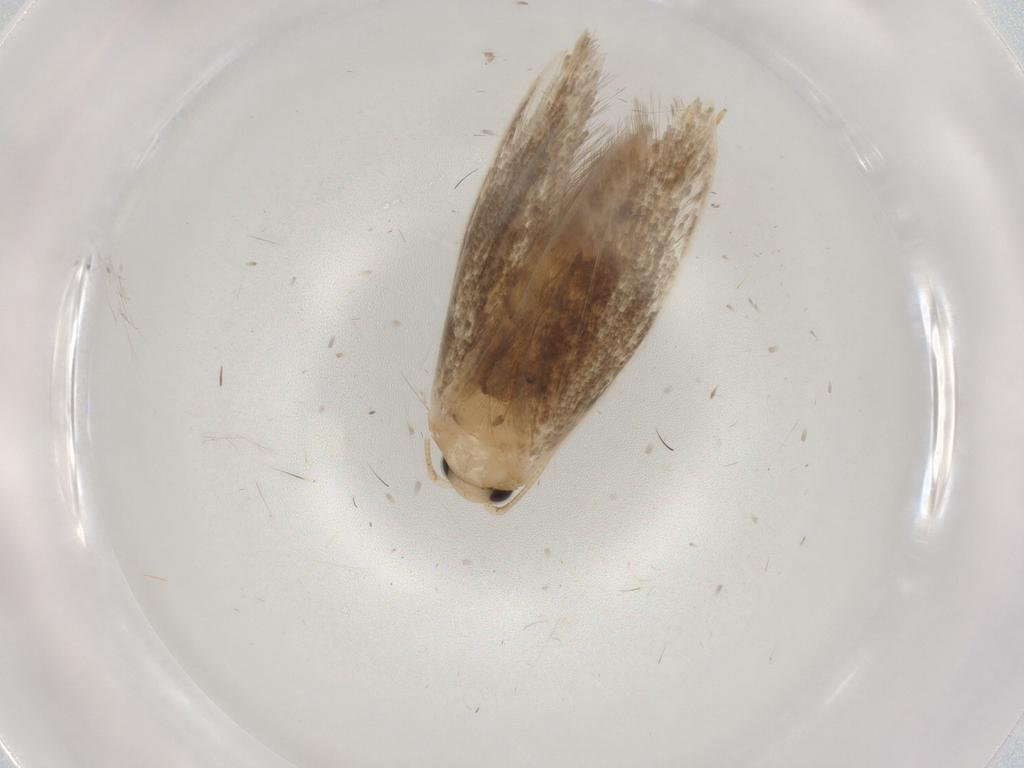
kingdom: Animalia
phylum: Arthropoda
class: Insecta
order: Lepidoptera
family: Tineidae
